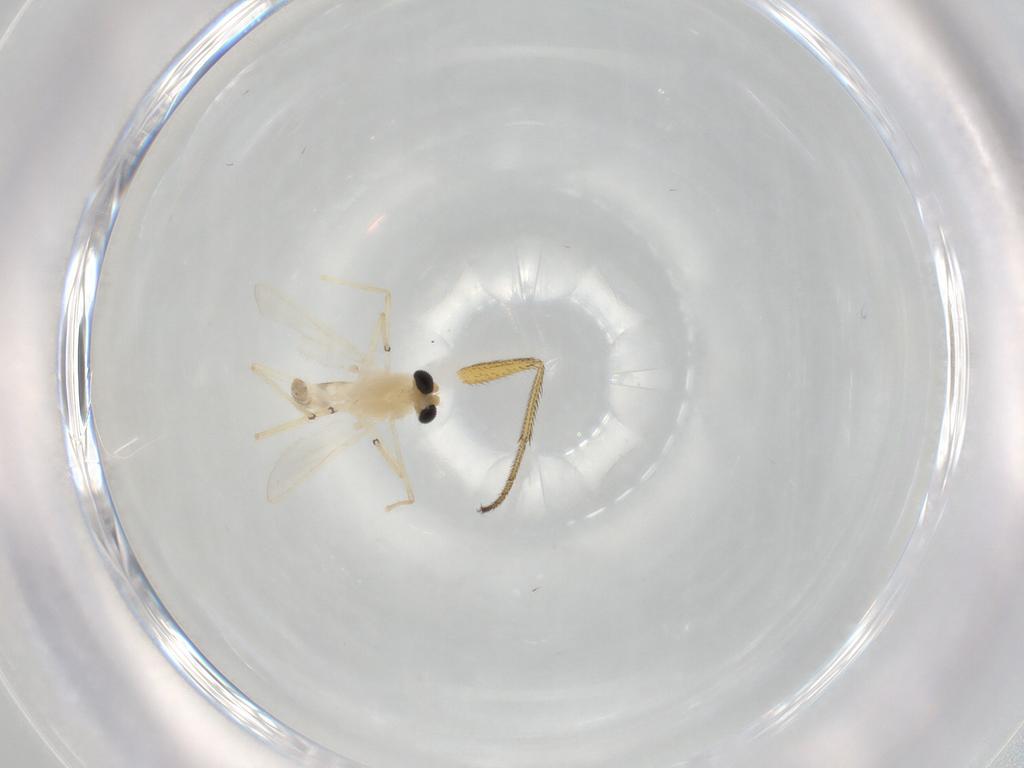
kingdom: Animalia
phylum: Arthropoda
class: Insecta
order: Diptera
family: Chironomidae
